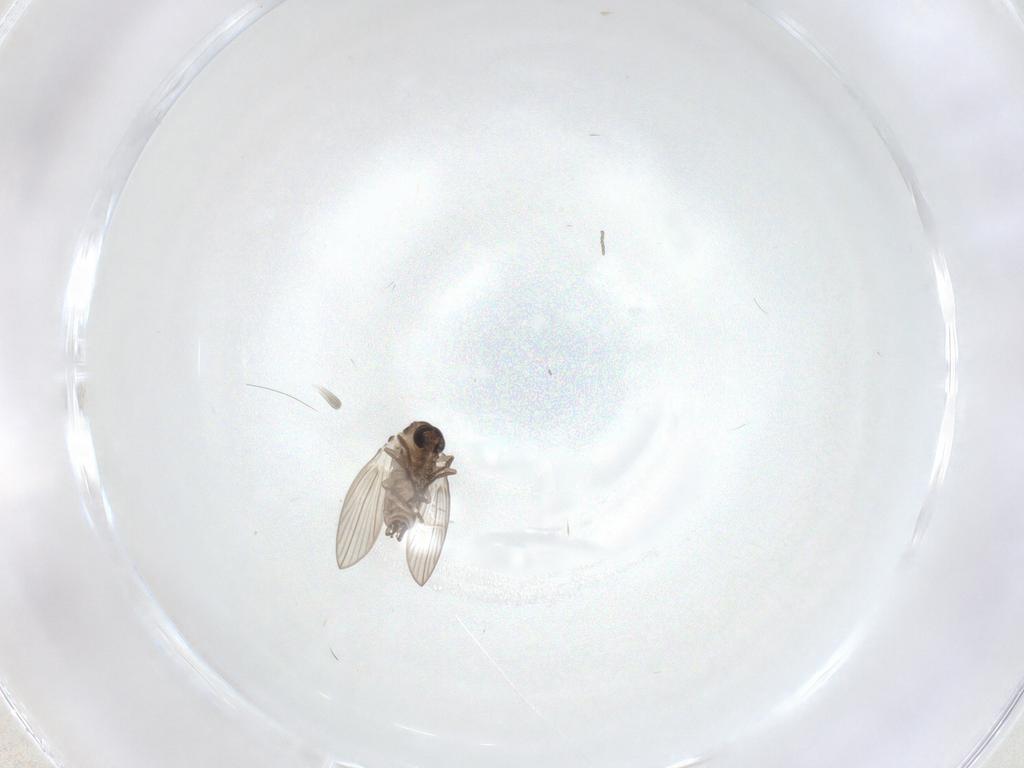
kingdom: Animalia
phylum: Arthropoda
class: Insecta
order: Diptera
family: Psychodidae
